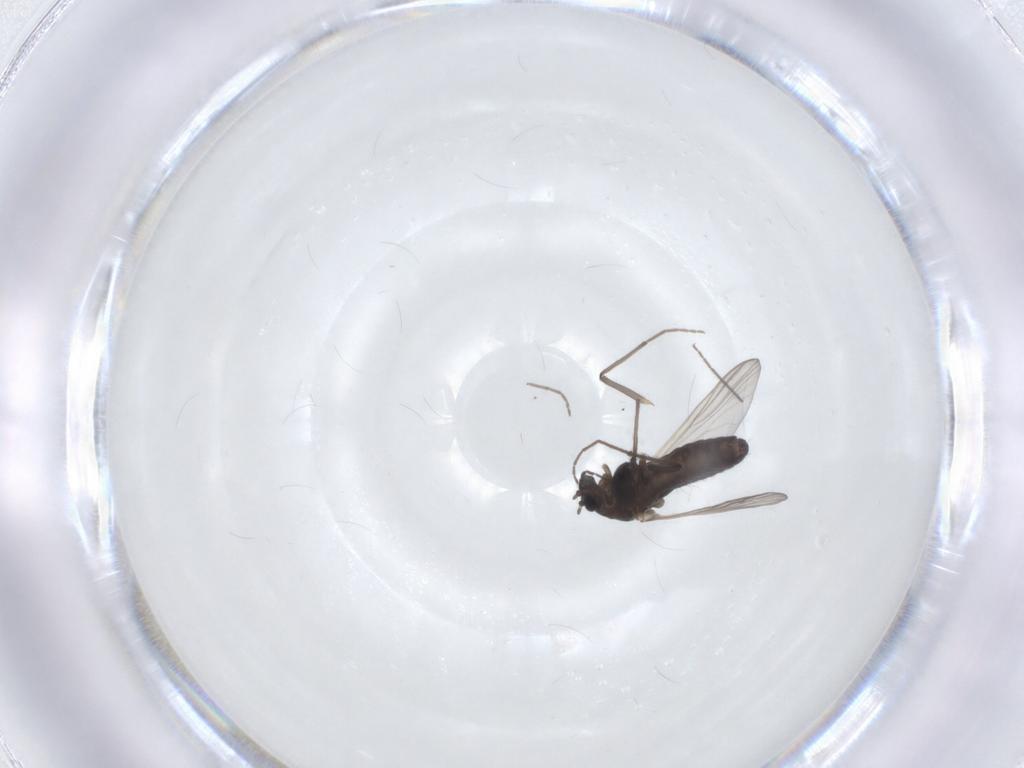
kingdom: Animalia
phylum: Arthropoda
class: Insecta
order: Diptera
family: Chironomidae
